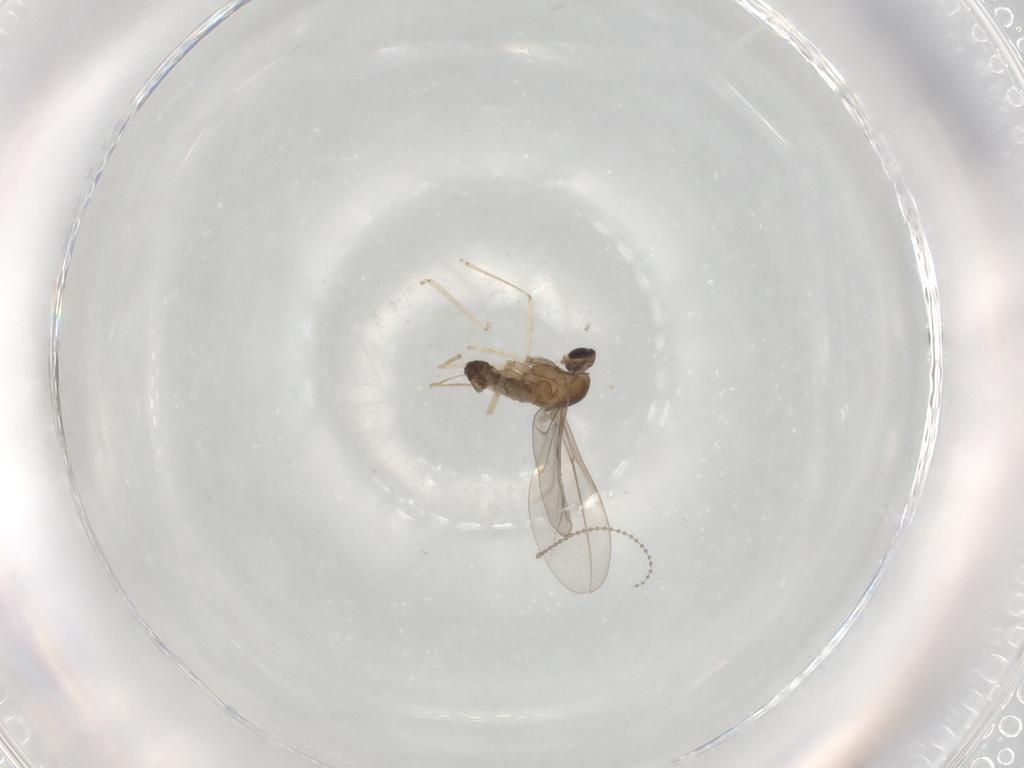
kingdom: Animalia
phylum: Arthropoda
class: Insecta
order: Diptera
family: Cecidomyiidae
